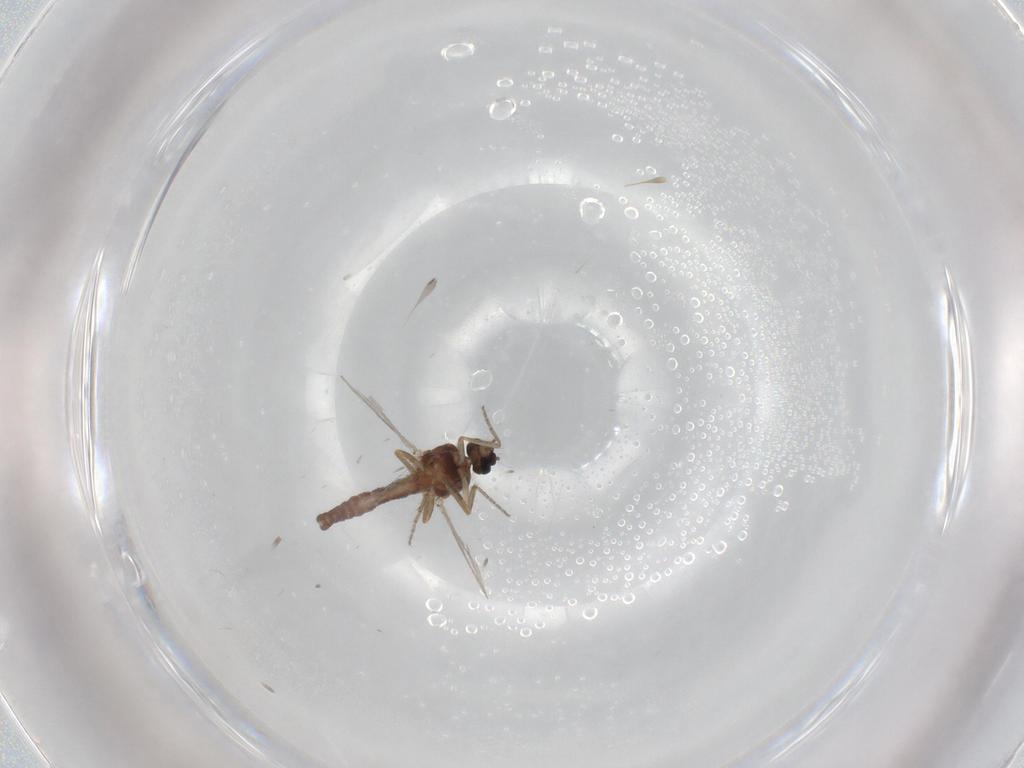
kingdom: Animalia
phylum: Arthropoda
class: Insecta
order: Diptera
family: Ceratopogonidae
